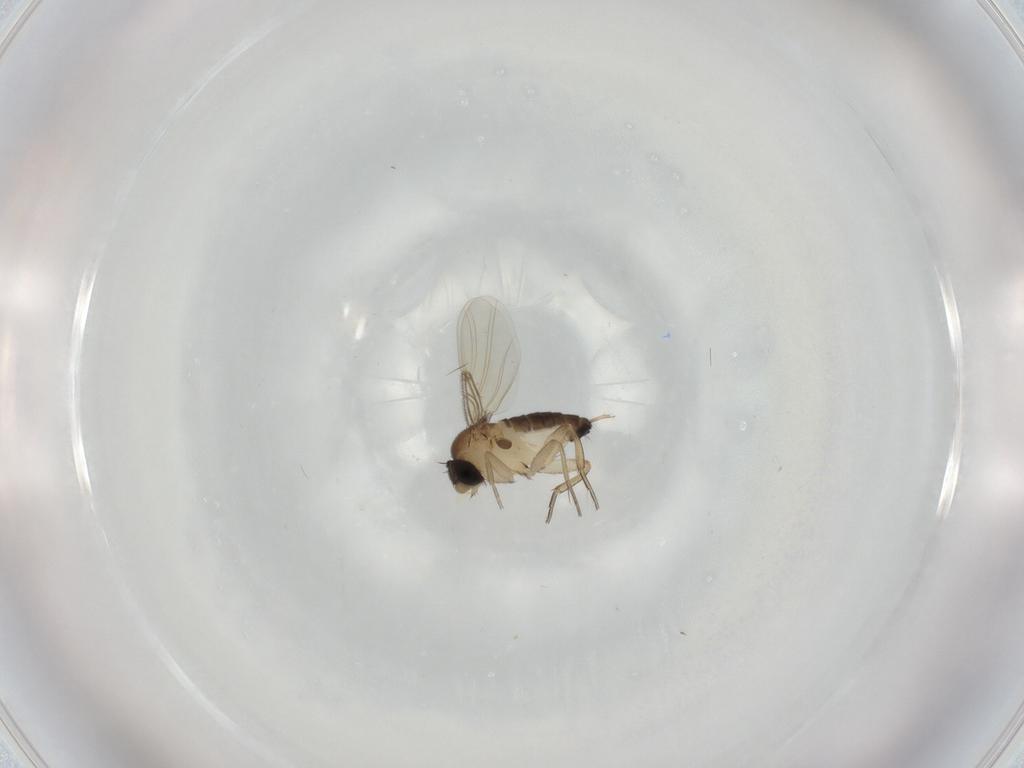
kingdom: Animalia
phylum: Arthropoda
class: Insecta
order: Diptera
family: Phoridae
